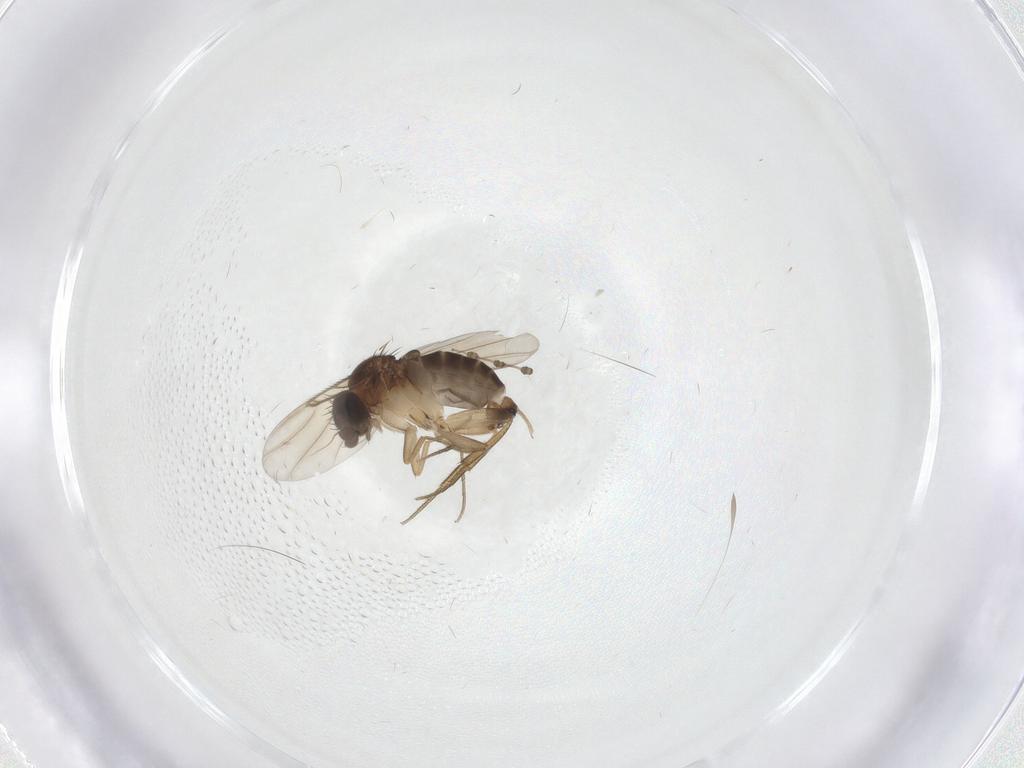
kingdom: Animalia
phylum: Arthropoda
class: Insecta
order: Diptera
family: Cecidomyiidae
